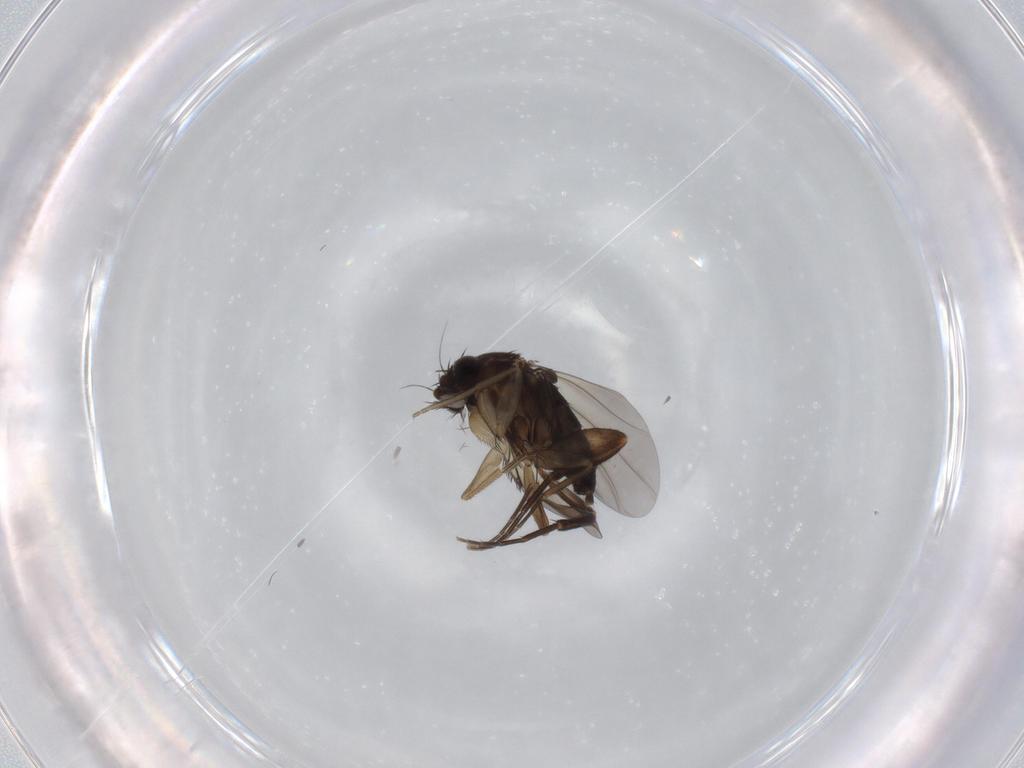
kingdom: Animalia
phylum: Arthropoda
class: Insecta
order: Diptera
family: Phoridae
